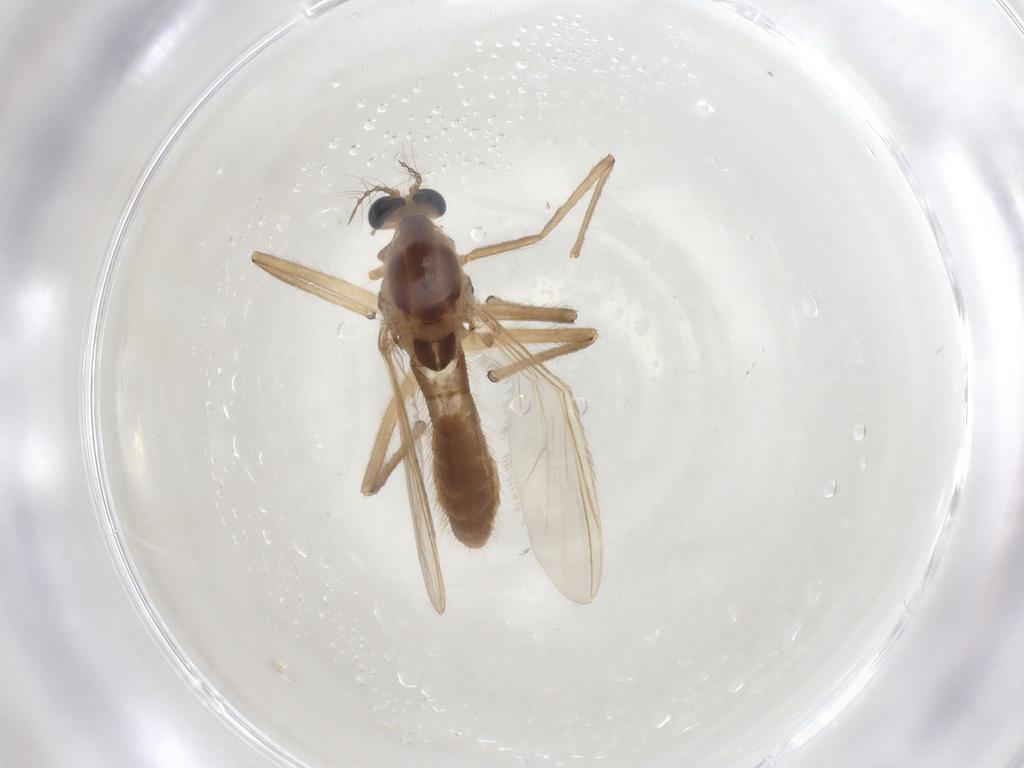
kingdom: Animalia
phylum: Arthropoda
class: Insecta
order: Diptera
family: Chironomidae
